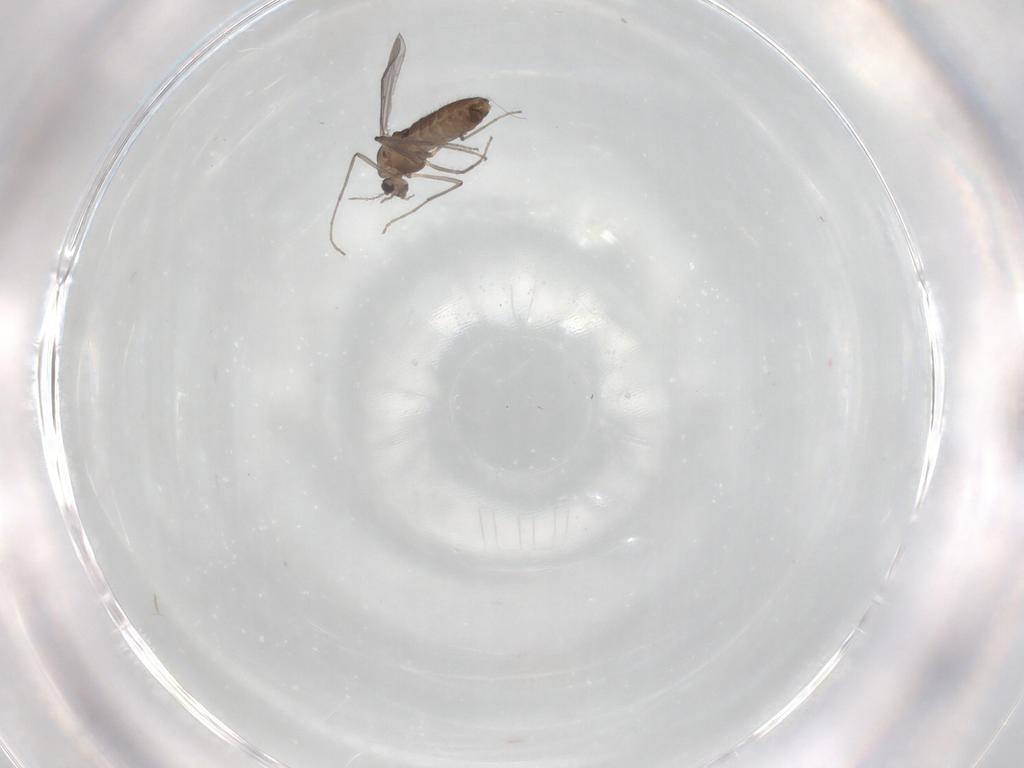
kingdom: Animalia
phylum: Arthropoda
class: Insecta
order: Diptera
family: Chironomidae
